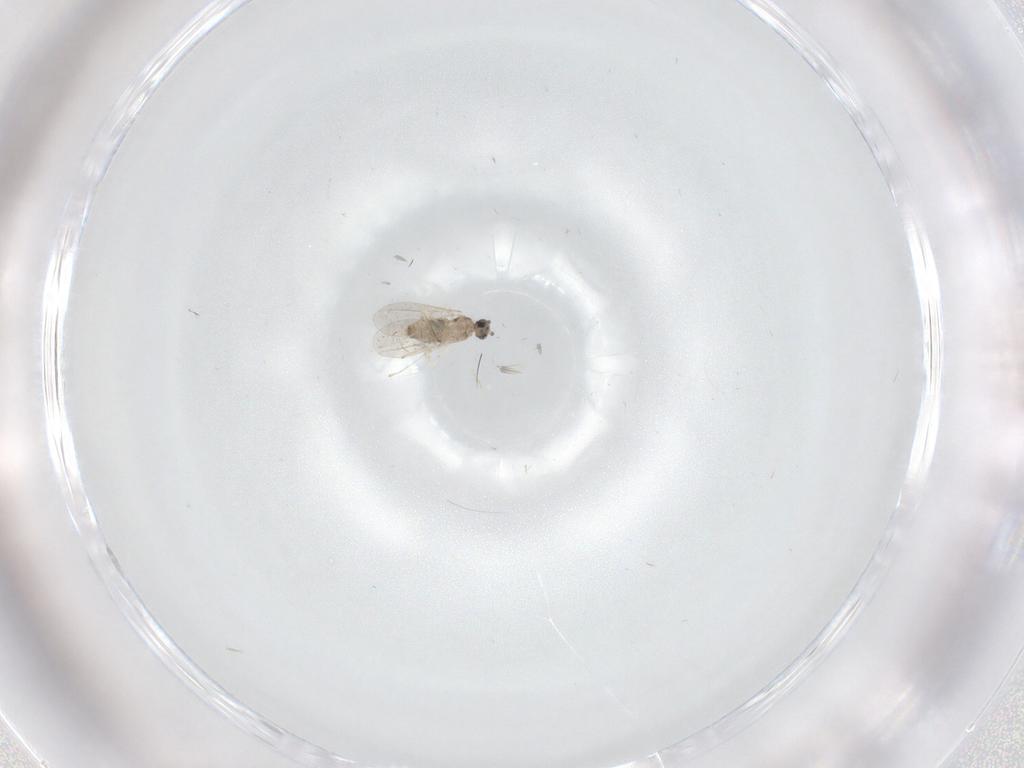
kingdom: Animalia
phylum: Arthropoda
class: Insecta
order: Diptera
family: Ceratopogonidae
